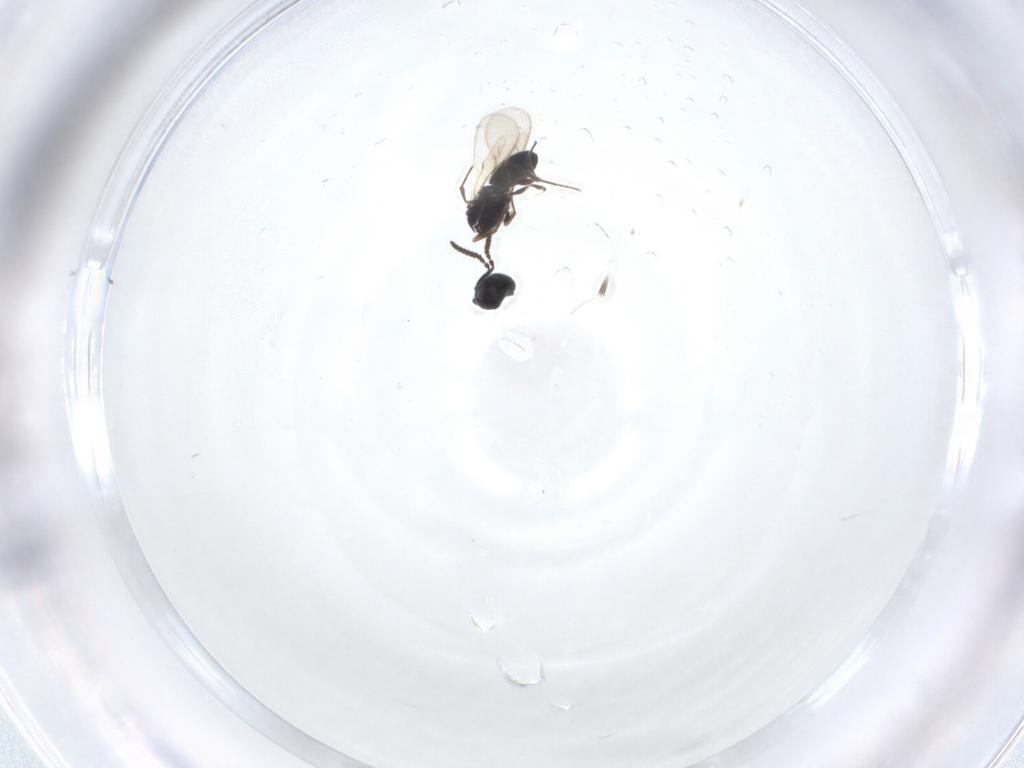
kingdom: Animalia
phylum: Arthropoda
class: Insecta
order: Hymenoptera
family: Scelionidae
